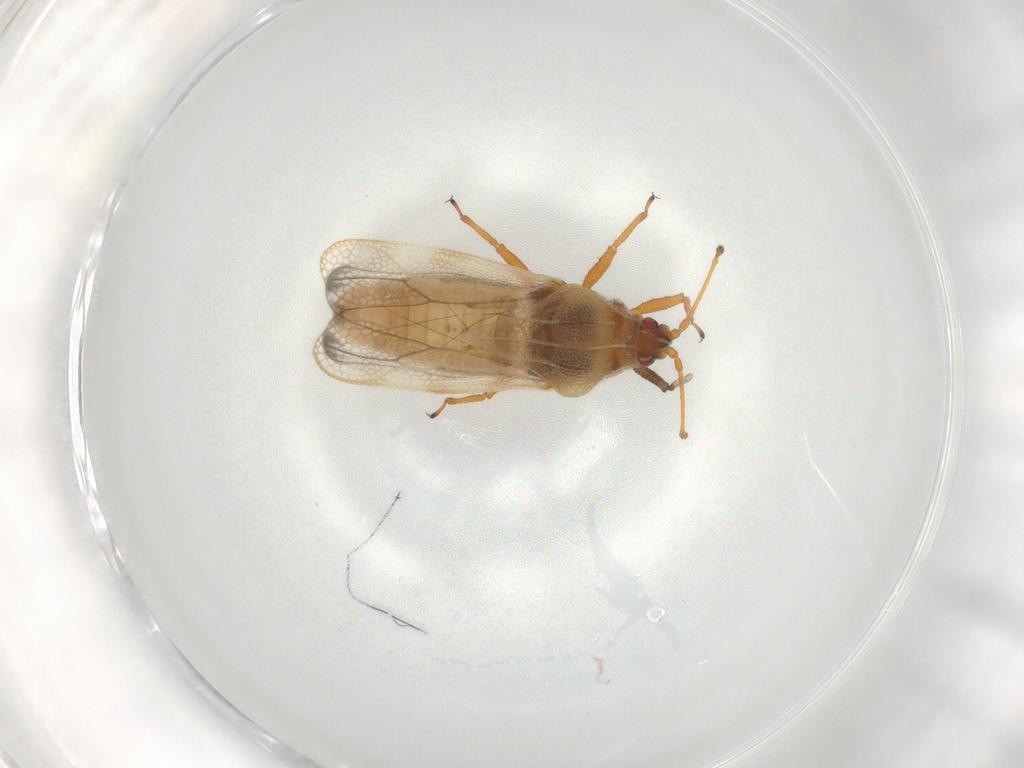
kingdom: Animalia
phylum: Arthropoda
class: Insecta
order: Hemiptera
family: Tingidae
